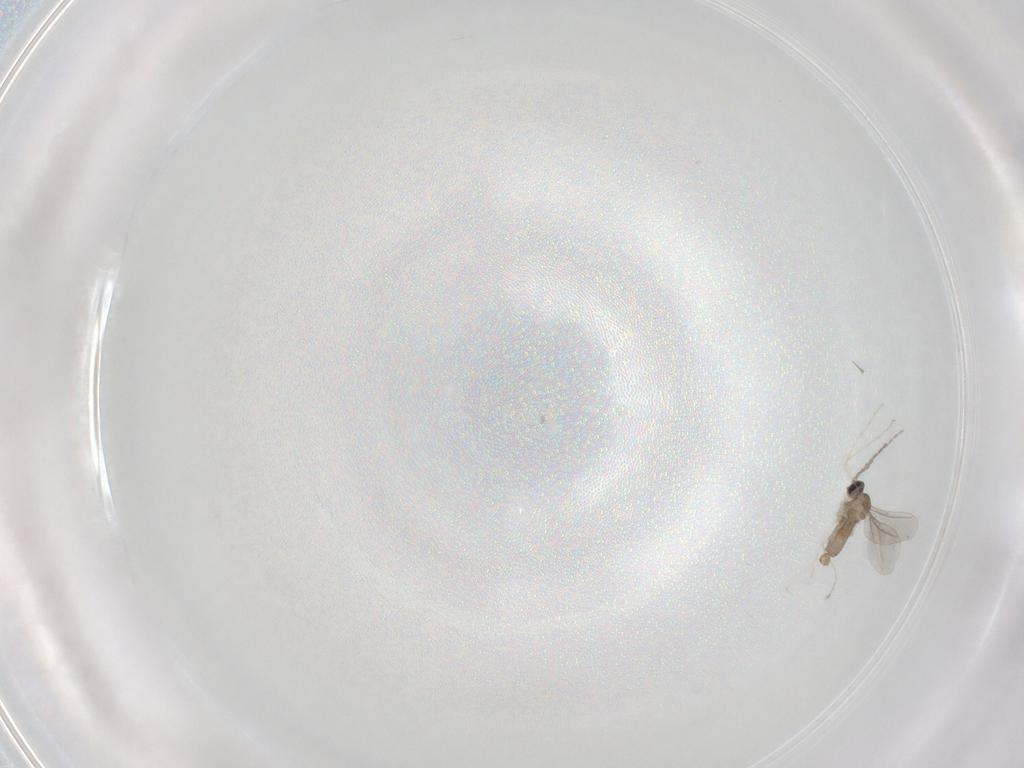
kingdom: Animalia
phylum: Arthropoda
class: Insecta
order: Diptera
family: Cecidomyiidae
